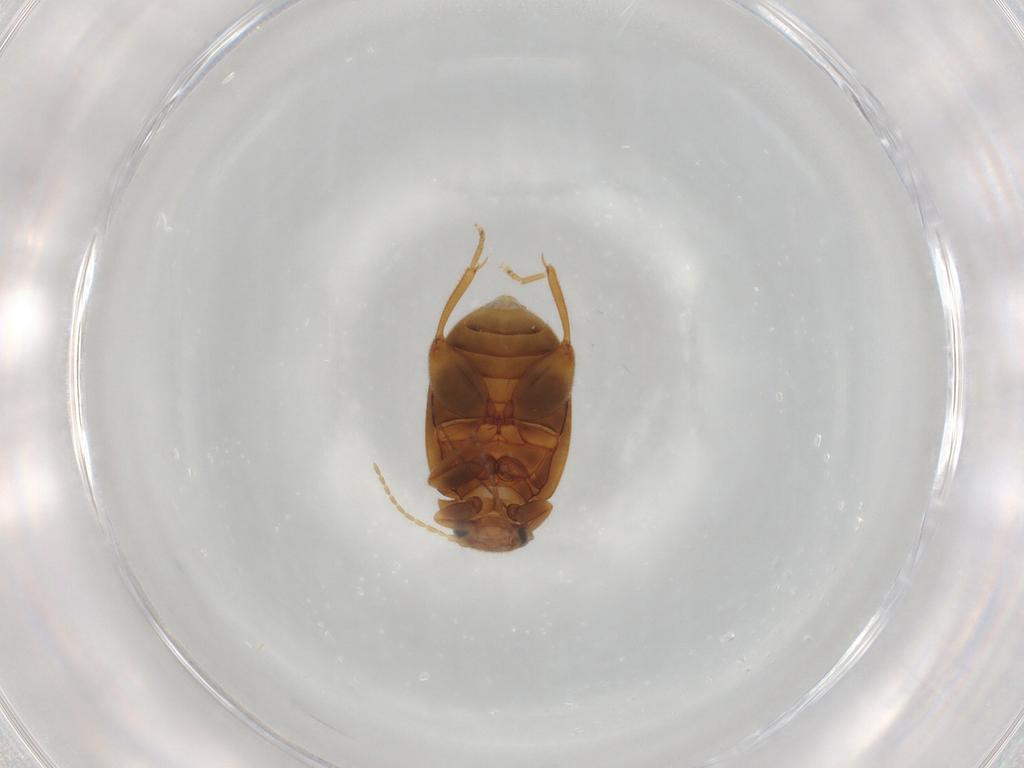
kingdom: Animalia
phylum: Arthropoda
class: Insecta
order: Coleoptera
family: Scirtidae
